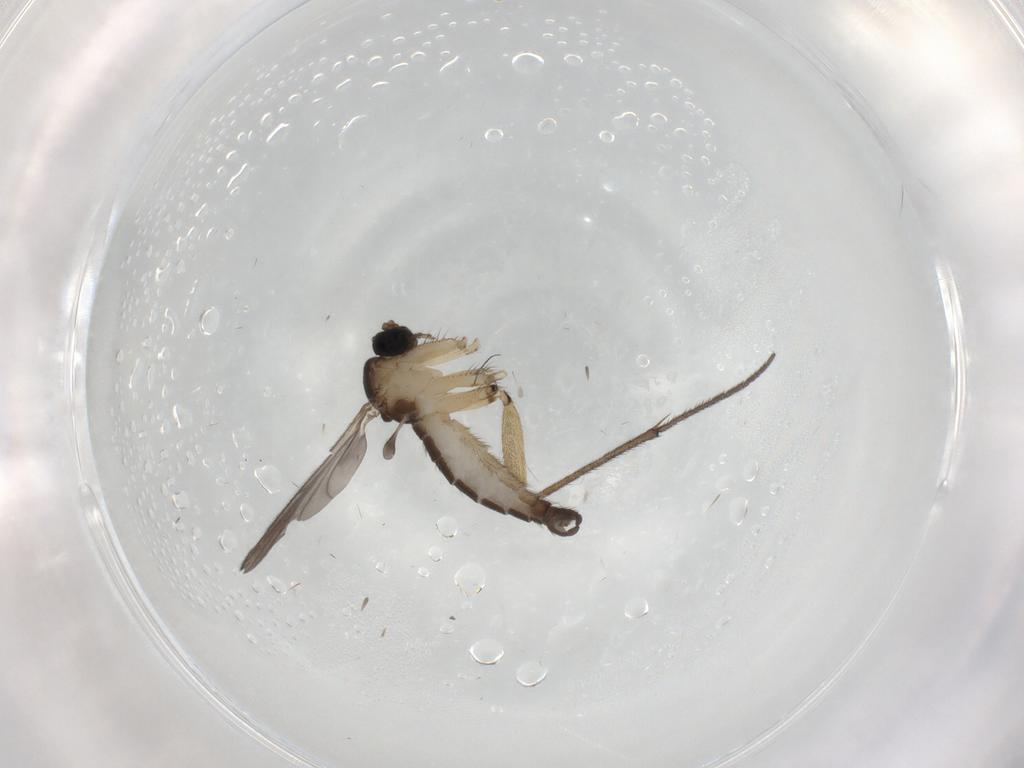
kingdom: Animalia
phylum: Arthropoda
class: Insecta
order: Diptera
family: Sciaridae
